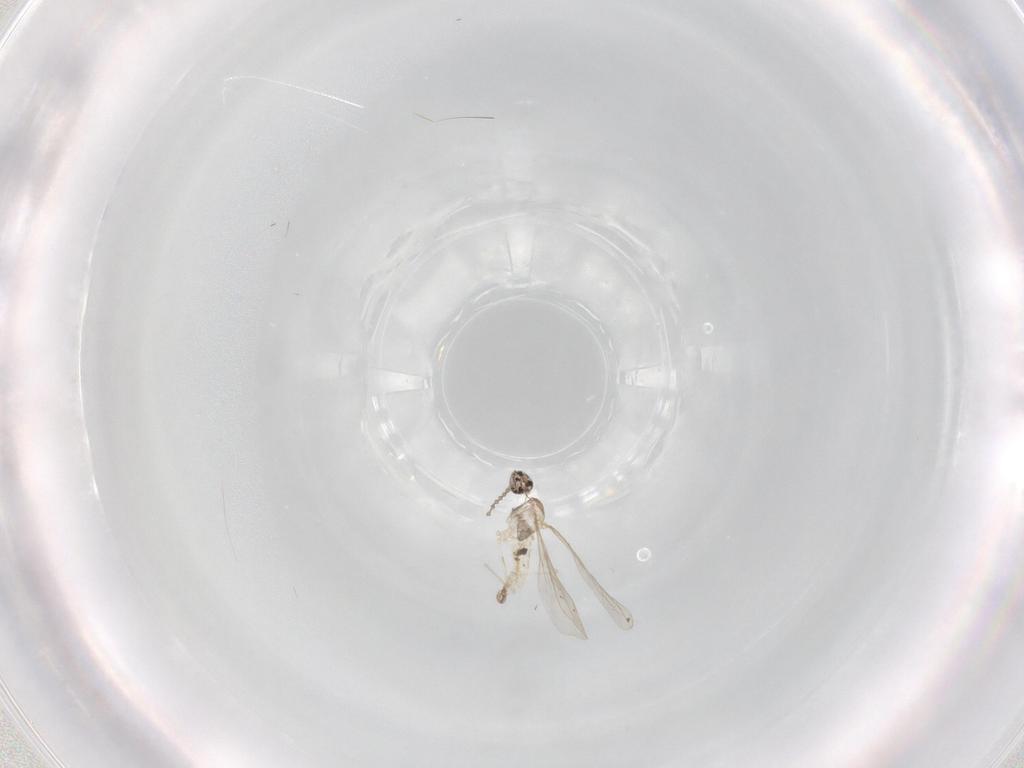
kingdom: Animalia
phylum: Arthropoda
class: Insecta
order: Diptera
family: Cecidomyiidae
